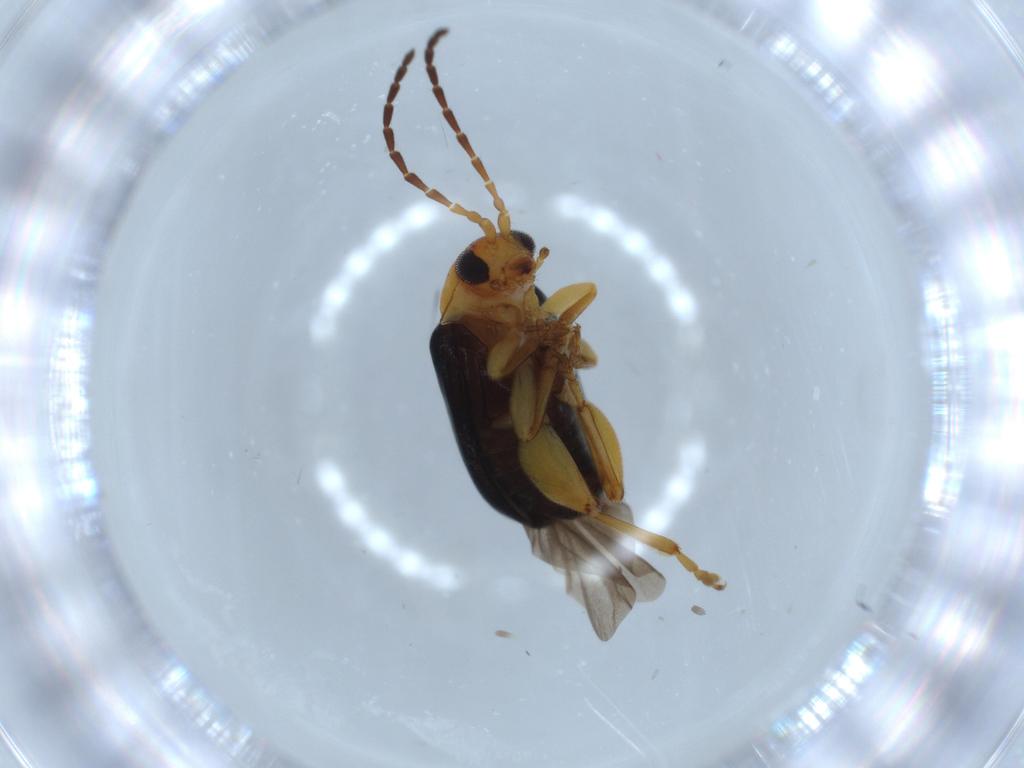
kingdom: Animalia
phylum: Arthropoda
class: Insecta
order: Coleoptera
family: Chrysomelidae
